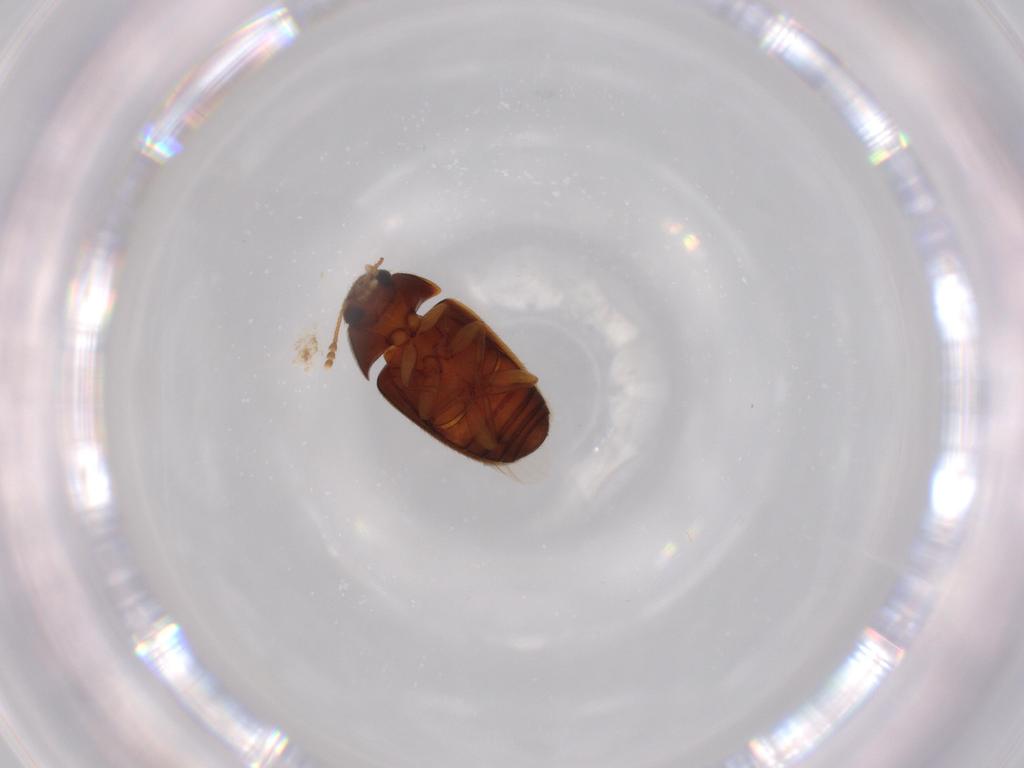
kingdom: Animalia
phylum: Arthropoda
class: Insecta
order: Coleoptera
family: Mycetophagidae
